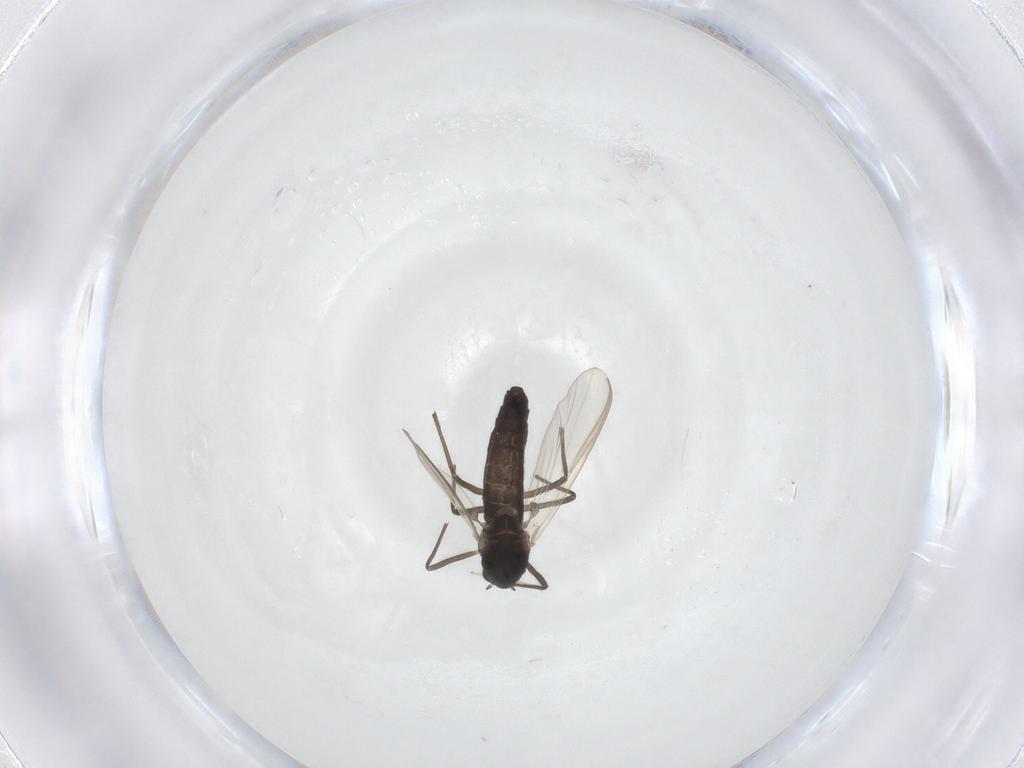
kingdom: Animalia
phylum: Arthropoda
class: Insecta
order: Diptera
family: Chironomidae
